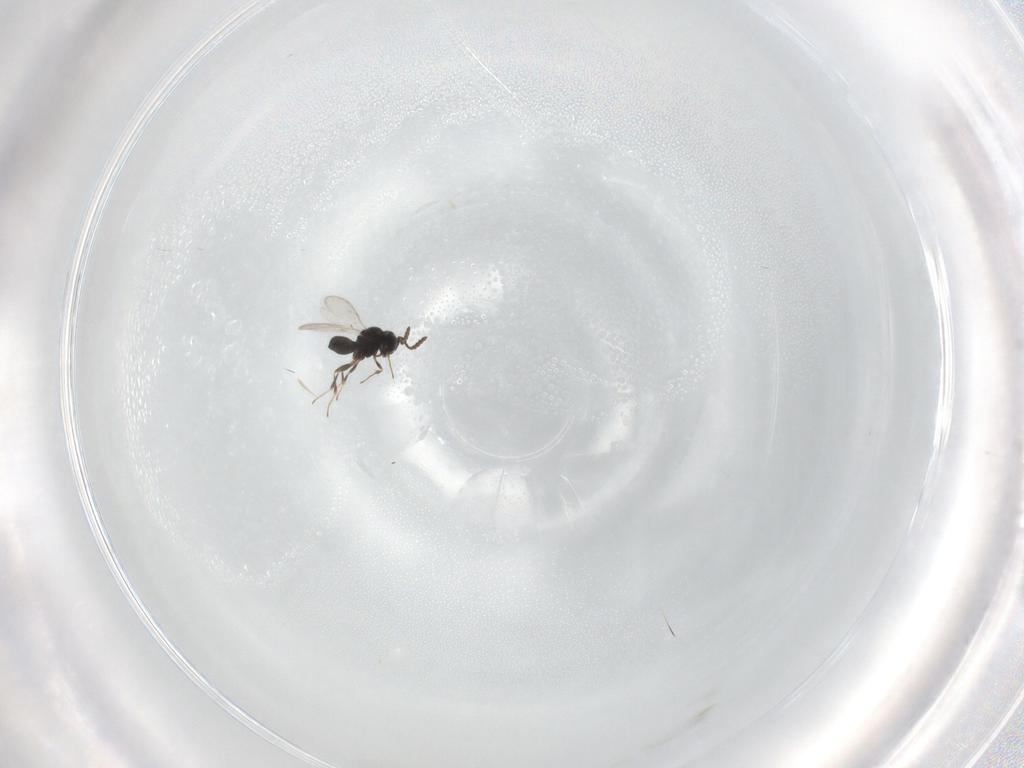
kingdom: Animalia
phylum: Arthropoda
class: Insecta
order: Hymenoptera
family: Scelionidae
